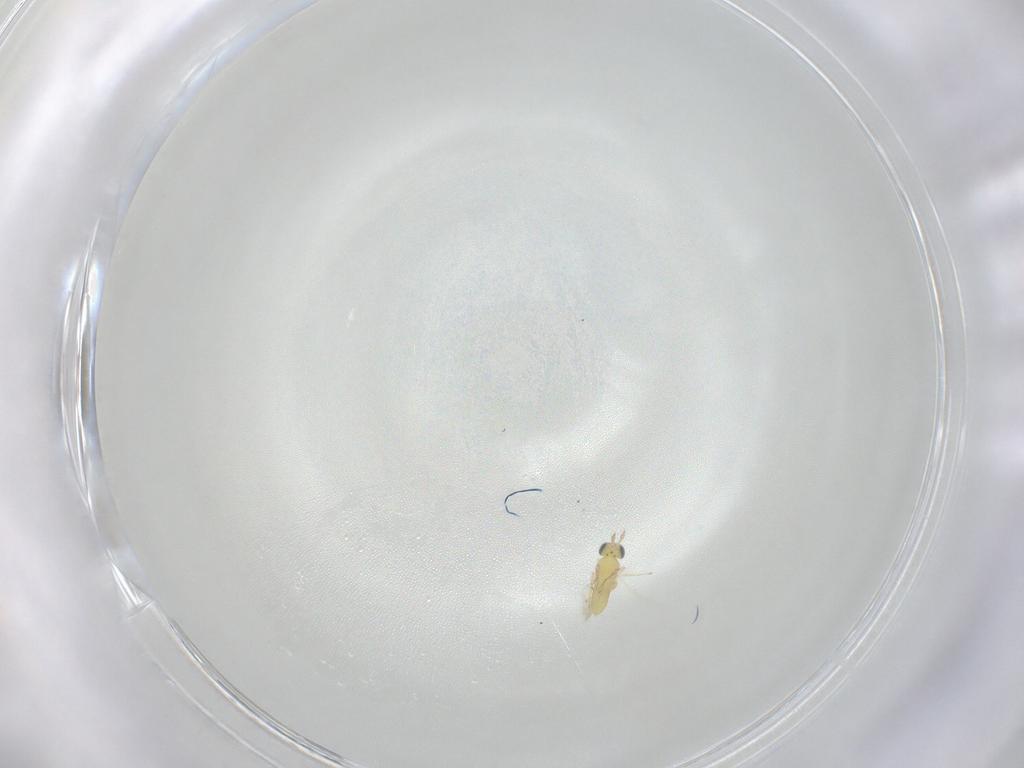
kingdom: Animalia
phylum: Arthropoda
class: Insecta
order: Hymenoptera
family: Trichogrammatidae
